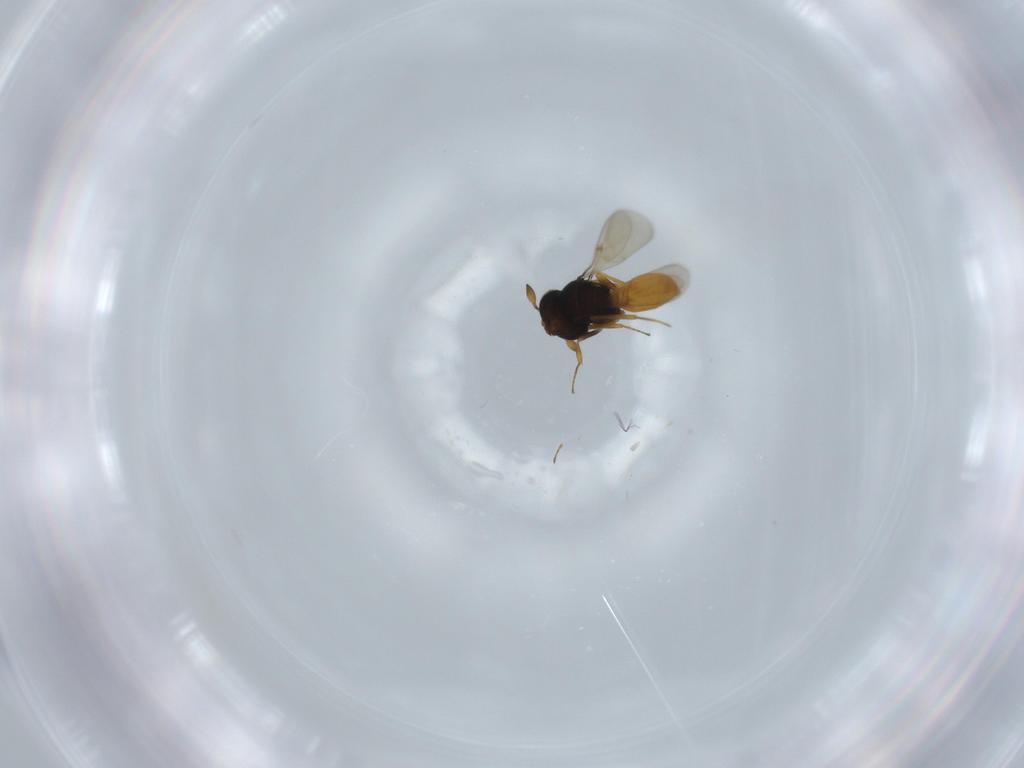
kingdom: Animalia
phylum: Arthropoda
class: Insecta
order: Hymenoptera
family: Scelionidae
